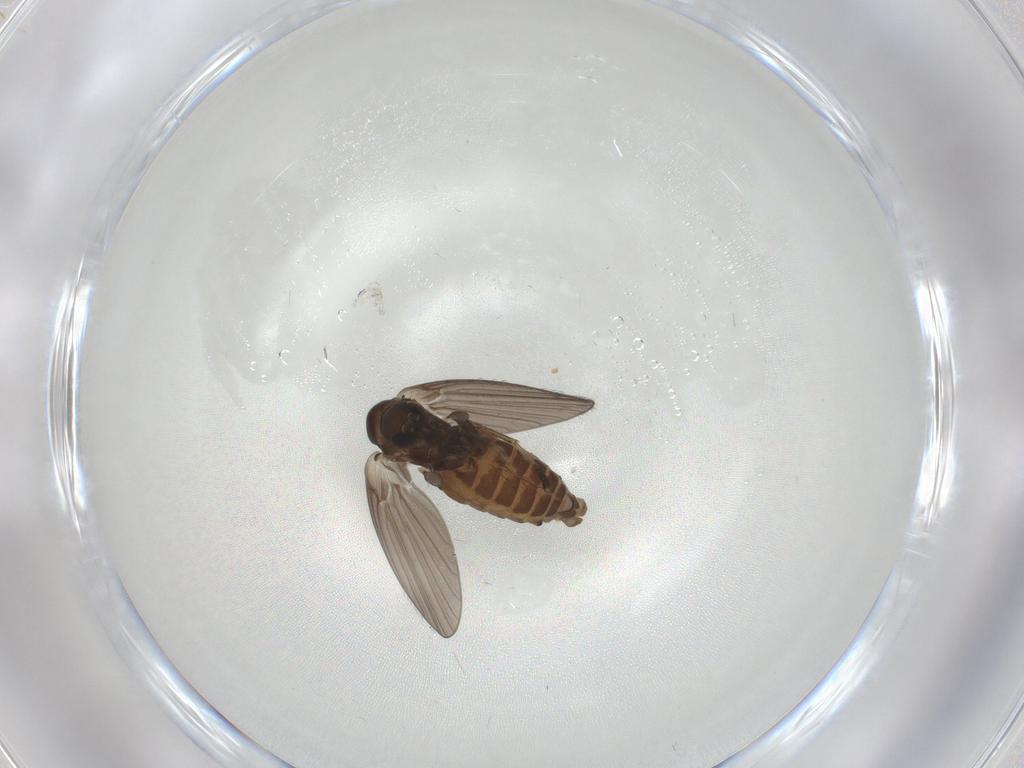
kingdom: Animalia
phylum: Arthropoda
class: Insecta
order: Diptera
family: Psychodidae
